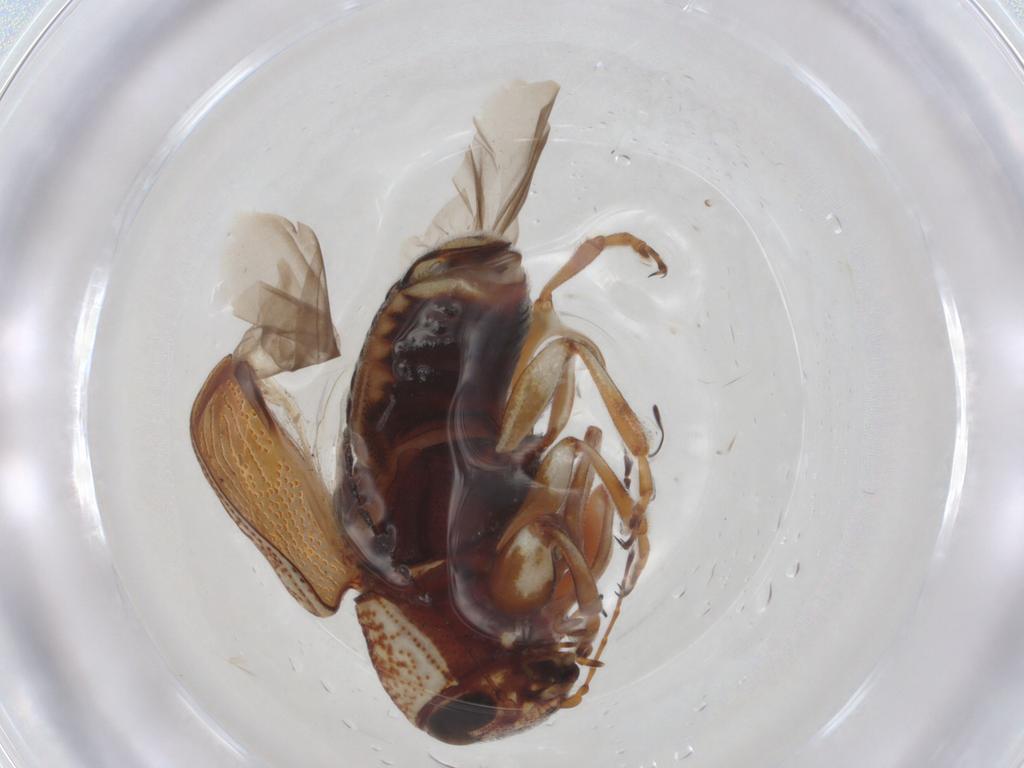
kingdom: Animalia
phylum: Arthropoda
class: Insecta
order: Coleoptera
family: Chrysomelidae
